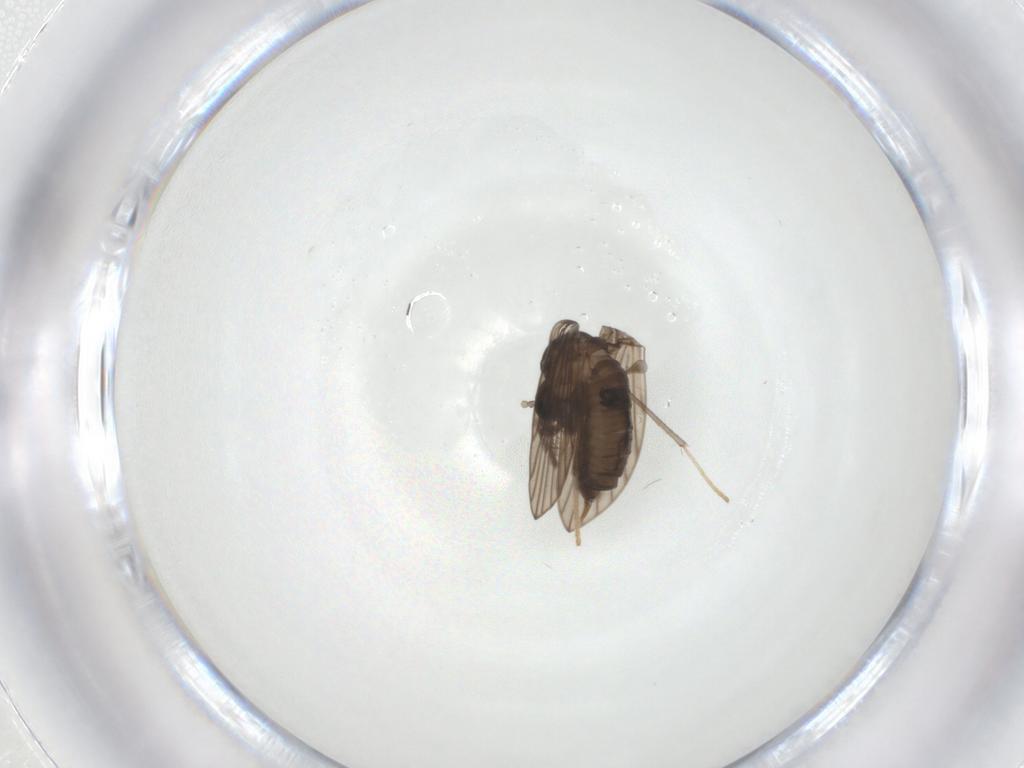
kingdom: Animalia
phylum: Arthropoda
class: Insecta
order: Diptera
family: Psychodidae
